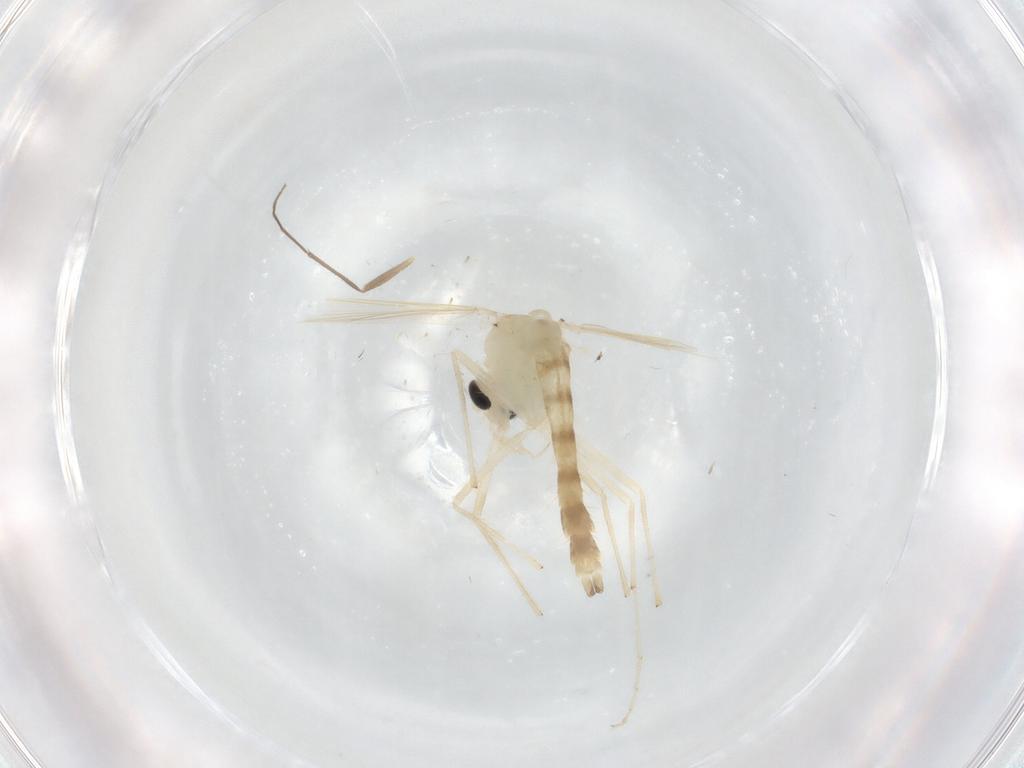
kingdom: Animalia
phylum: Arthropoda
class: Insecta
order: Diptera
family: Chironomidae
